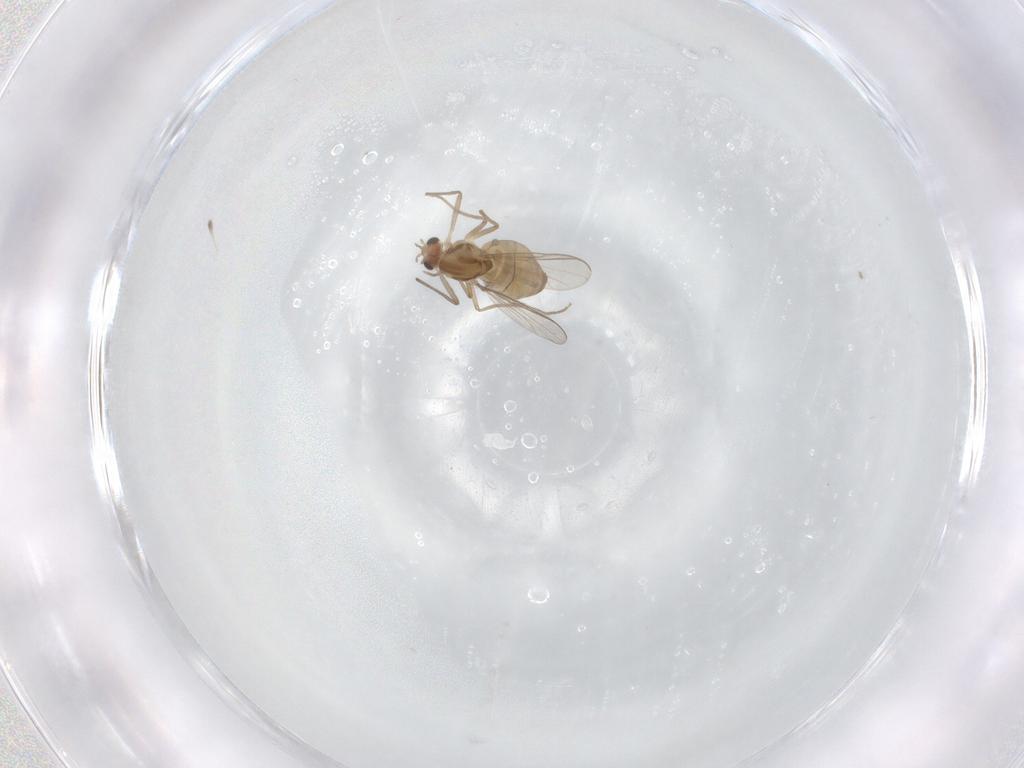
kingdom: Animalia
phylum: Arthropoda
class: Insecta
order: Diptera
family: Chironomidae
